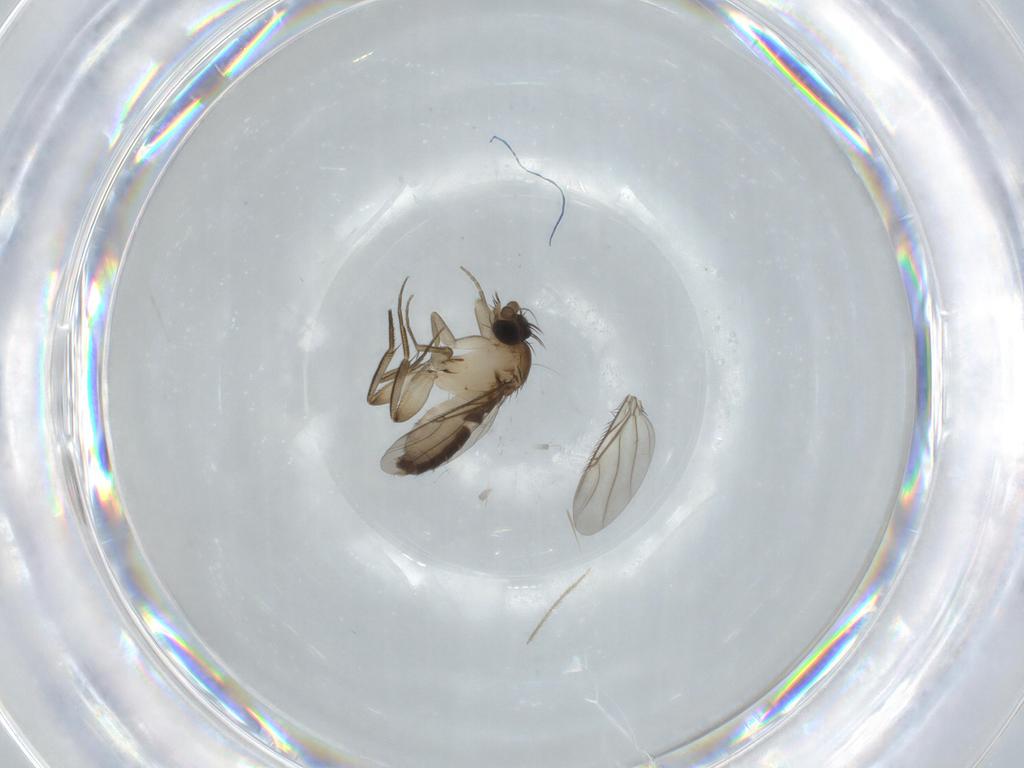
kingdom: Animalia
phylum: Arthropoda
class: Insecta
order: Diptera
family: Phoridae
